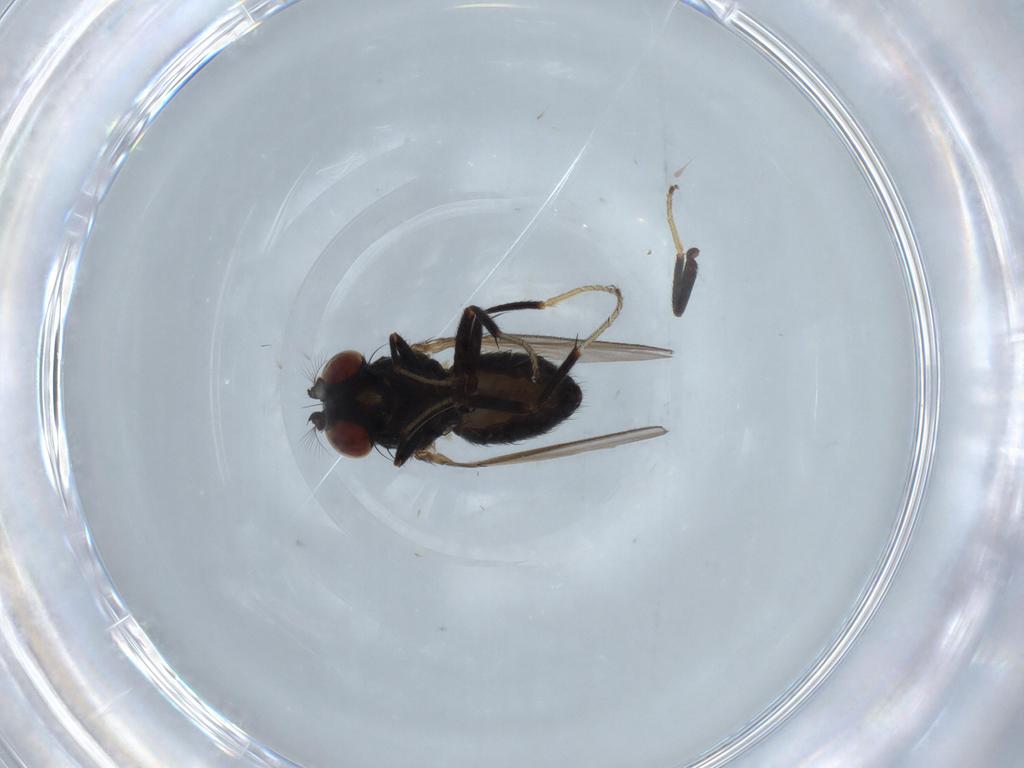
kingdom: Animalia
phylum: Arthropoda
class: Insecta
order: Diptera
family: Ephydridae
